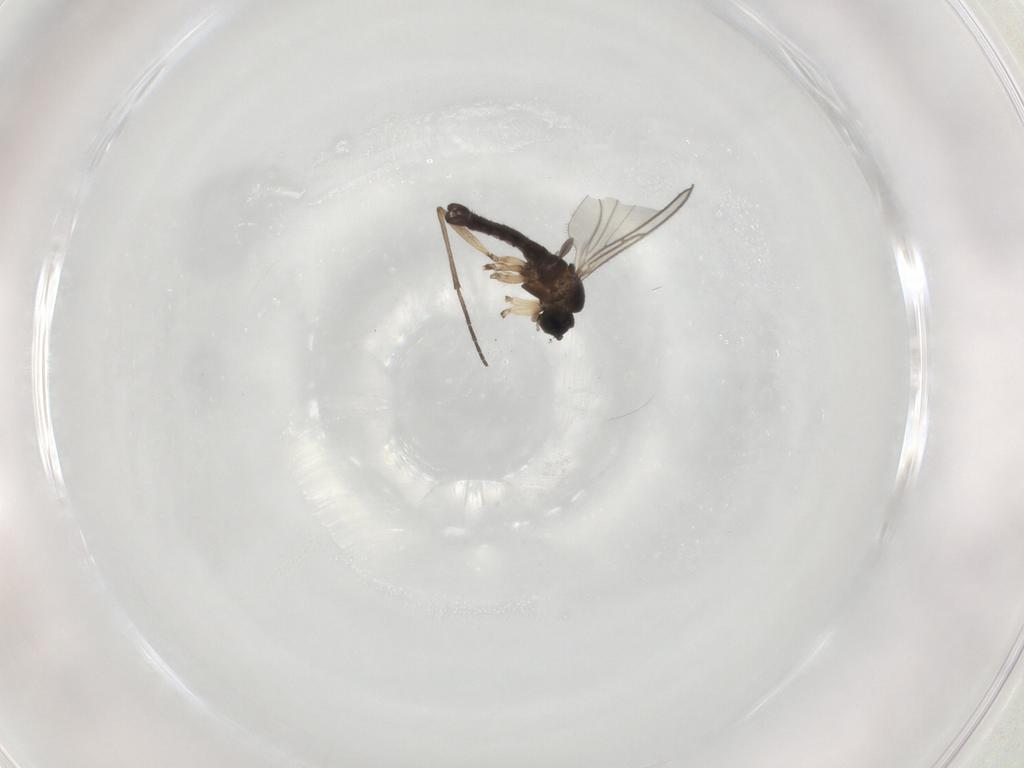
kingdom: Animalia
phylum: Arthropoda
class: Insecta
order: Diptera
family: Sciaridae
